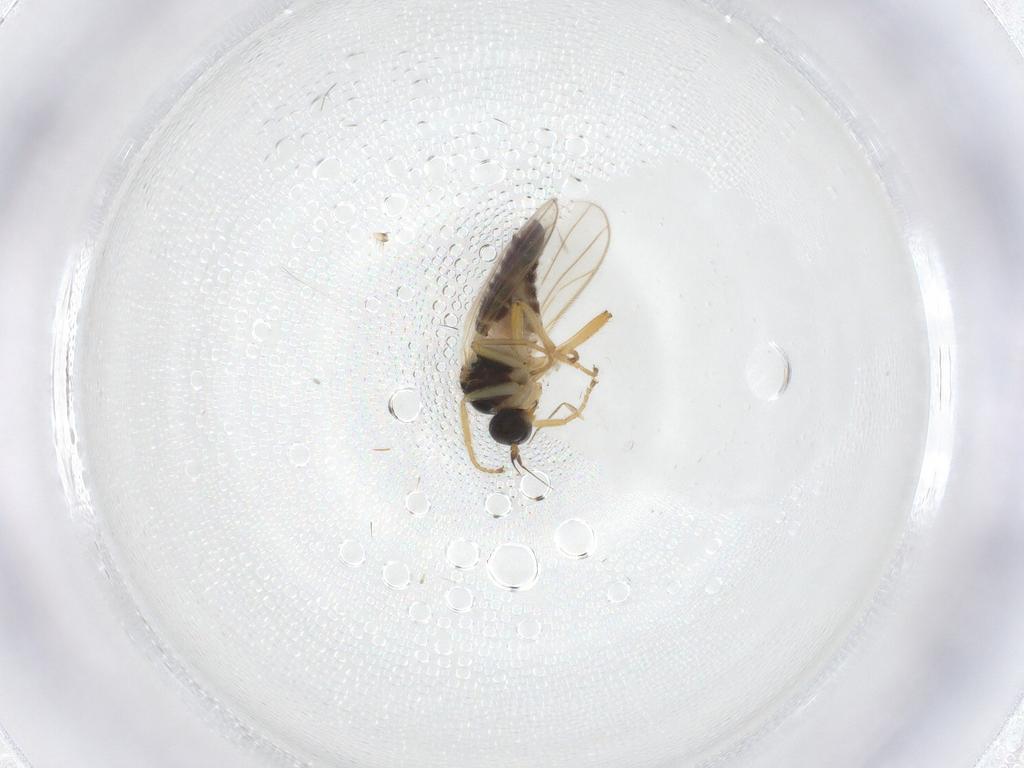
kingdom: Animalia
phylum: Arthropoda
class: Insecta
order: Diptera
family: Hybotidae
